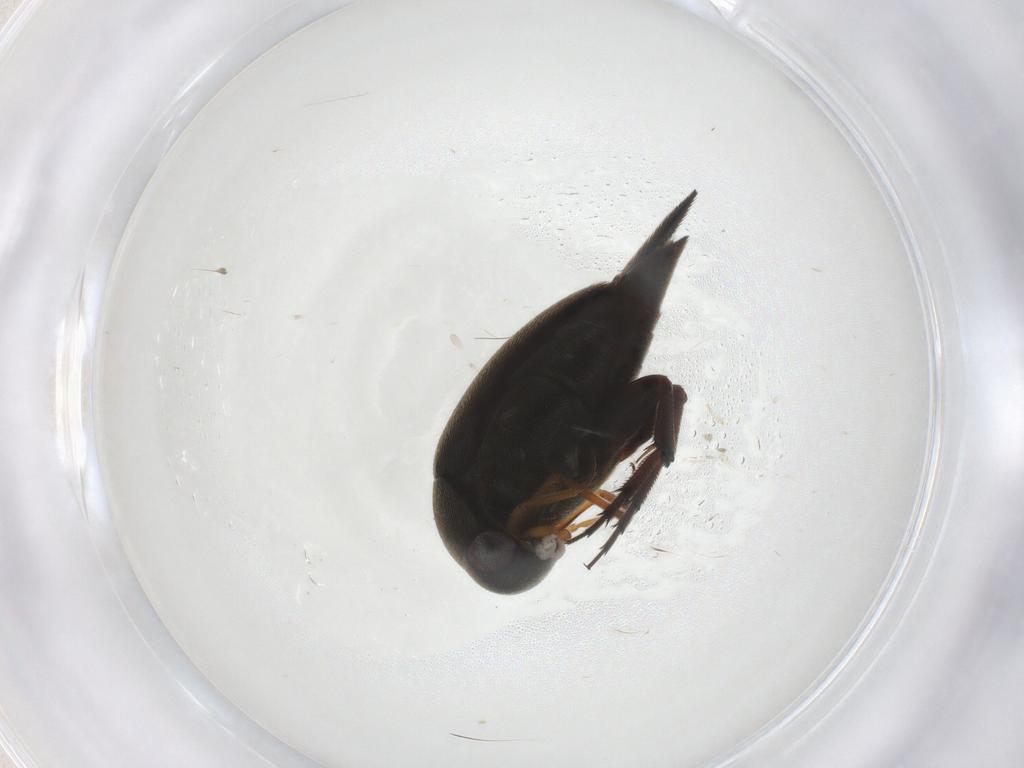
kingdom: Animalia
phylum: Arthropoda
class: Insecta
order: Coleoptera
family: Mordellidae
